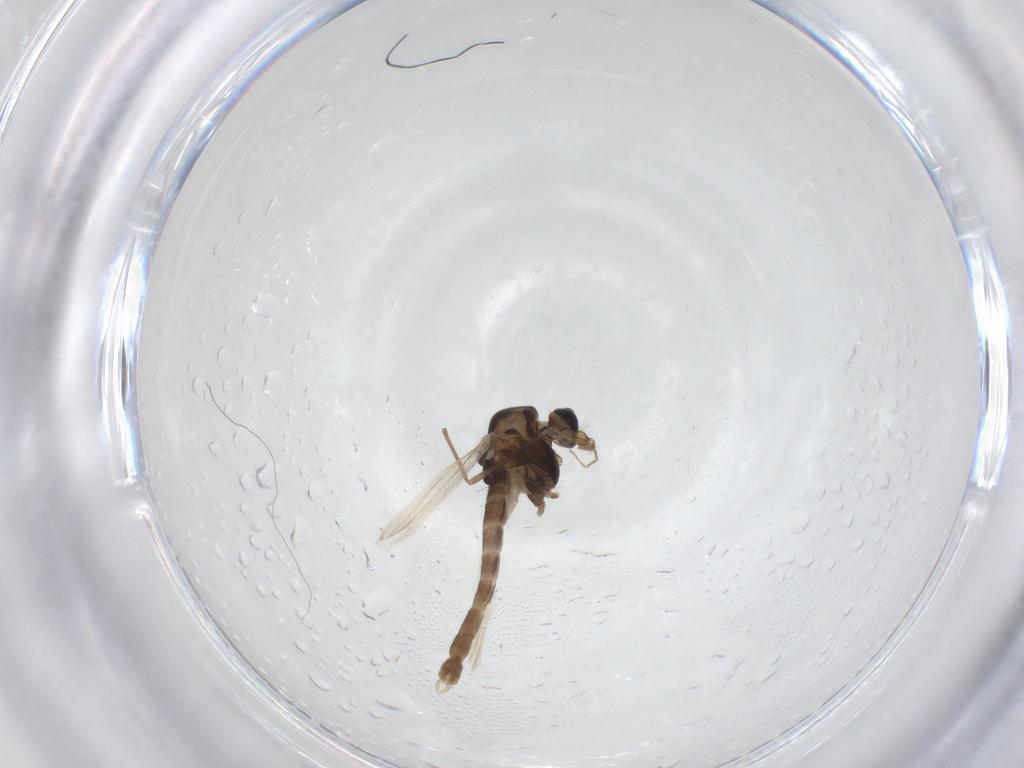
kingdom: Animalia
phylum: Arthropoda
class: Insecta
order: Diptera
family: Chironomidae
